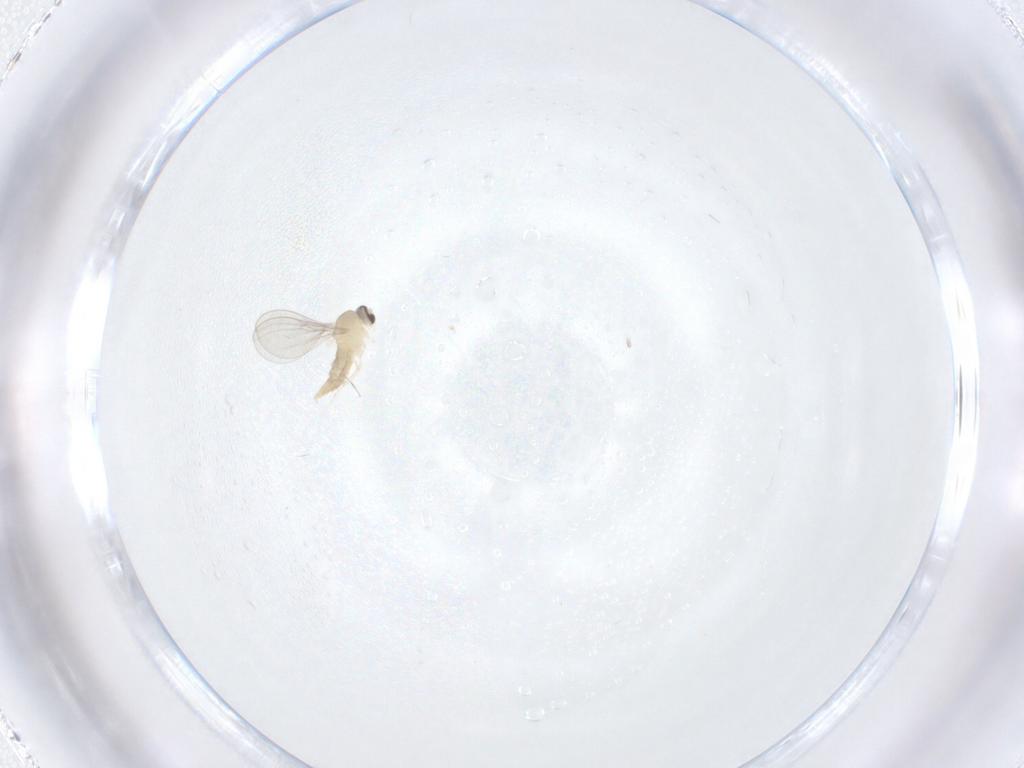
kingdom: Animalia
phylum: Arthropoda
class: Insecta
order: Diptera
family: Cecidomyiidae
